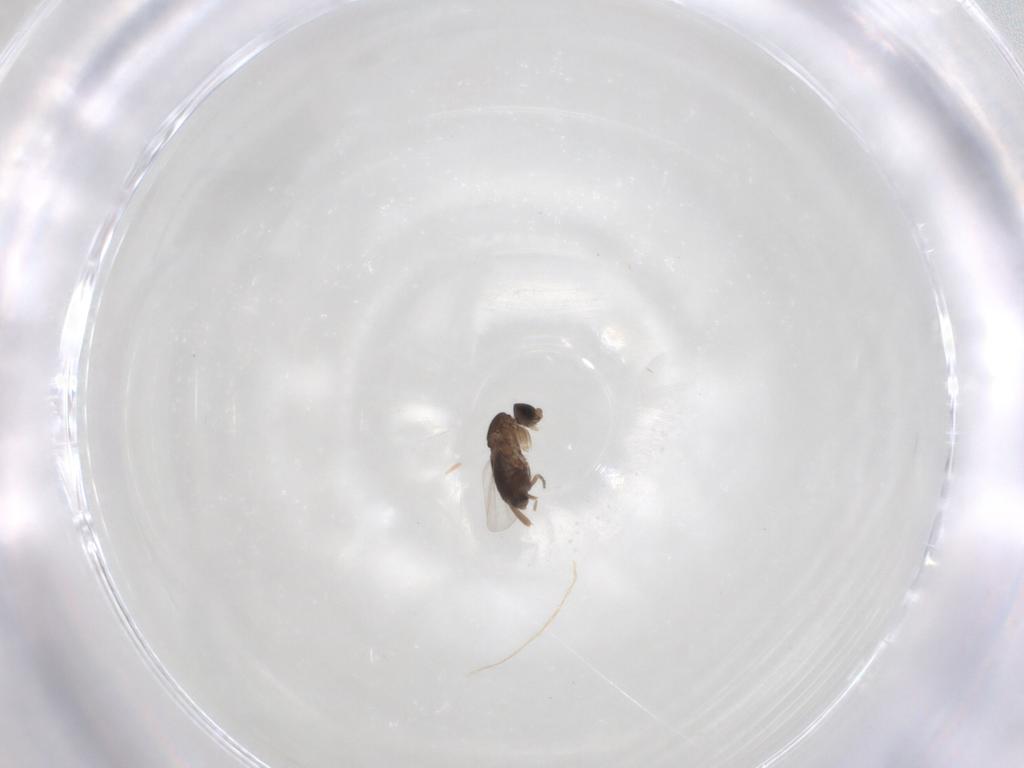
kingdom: Animalia
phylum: Arthropoda
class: Insecta
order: Diptera
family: Phoridae
